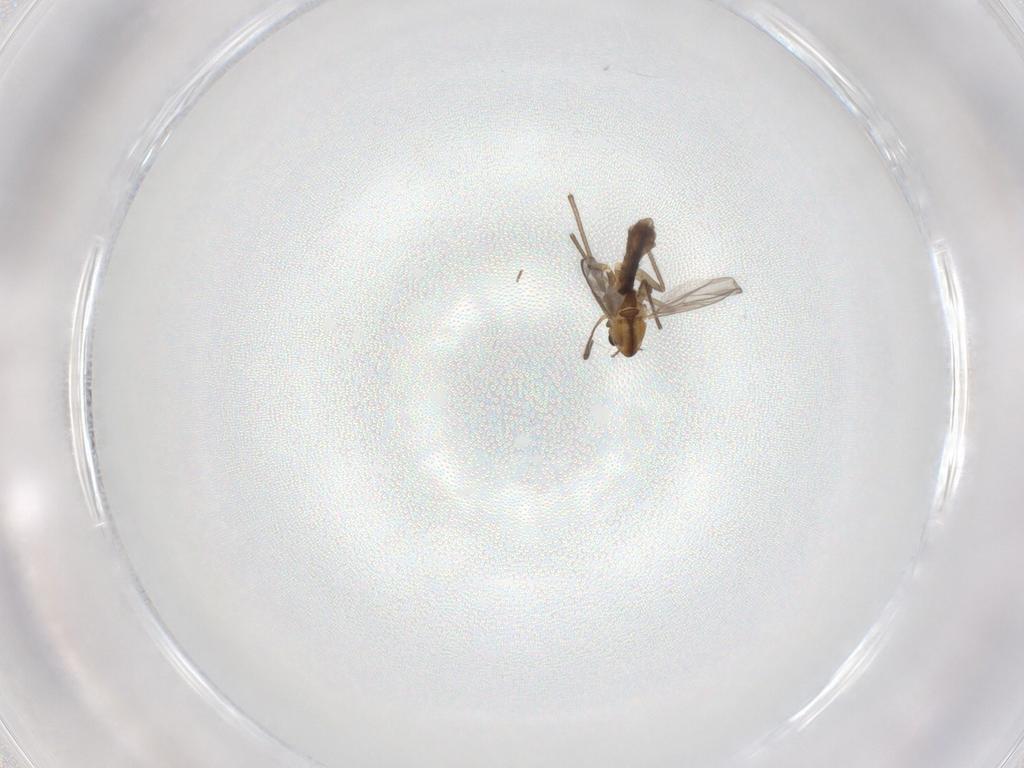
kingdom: Animalia
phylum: Arthropoda
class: Insecta
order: Diptera
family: Chironomidae
